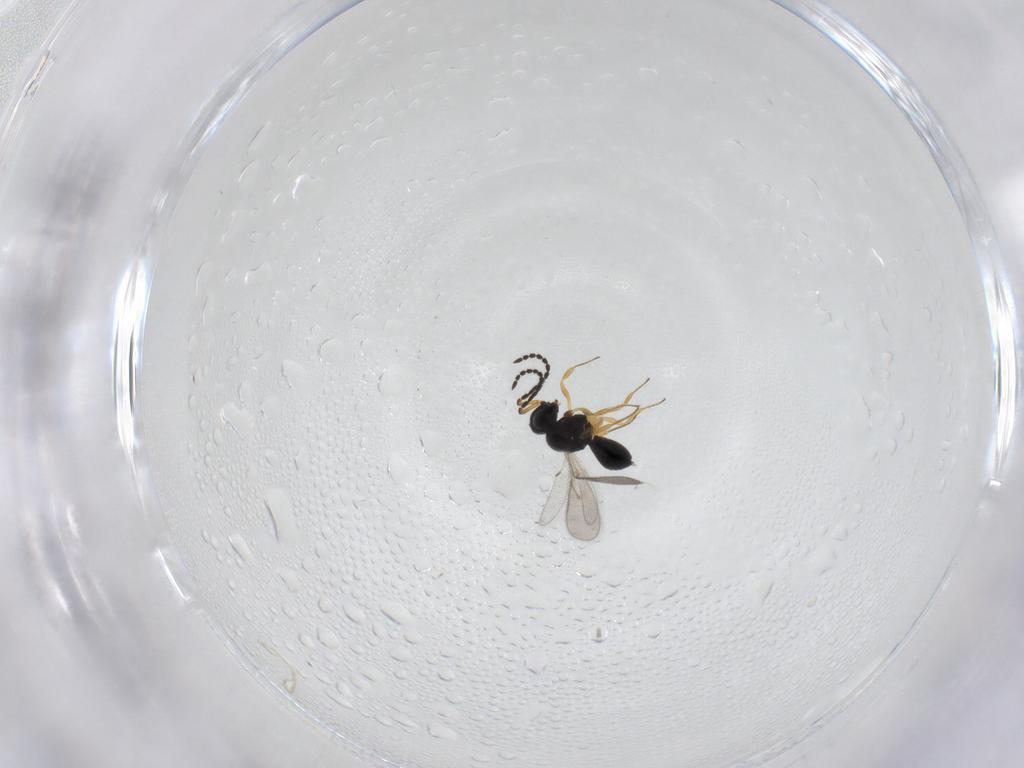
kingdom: Animalia
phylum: Arthropoda
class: Insecta
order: Hymenoptera
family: Scelionidae
